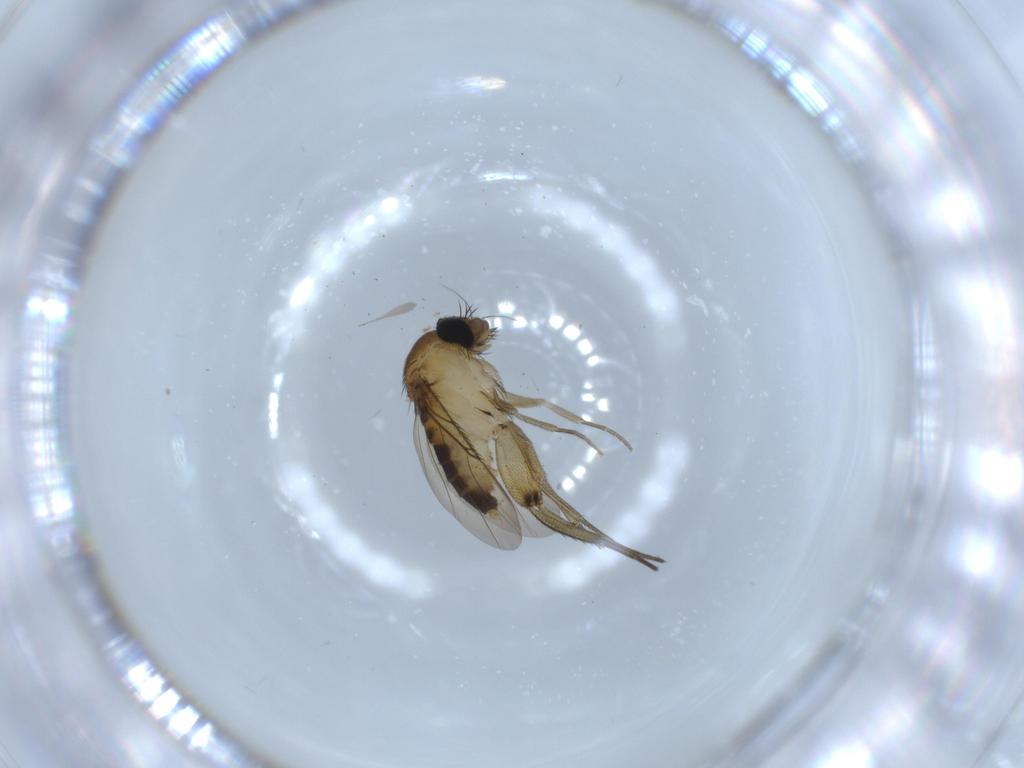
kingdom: Animalia
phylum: Arthropoda
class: Insecta
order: Diptera
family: Phoridae
